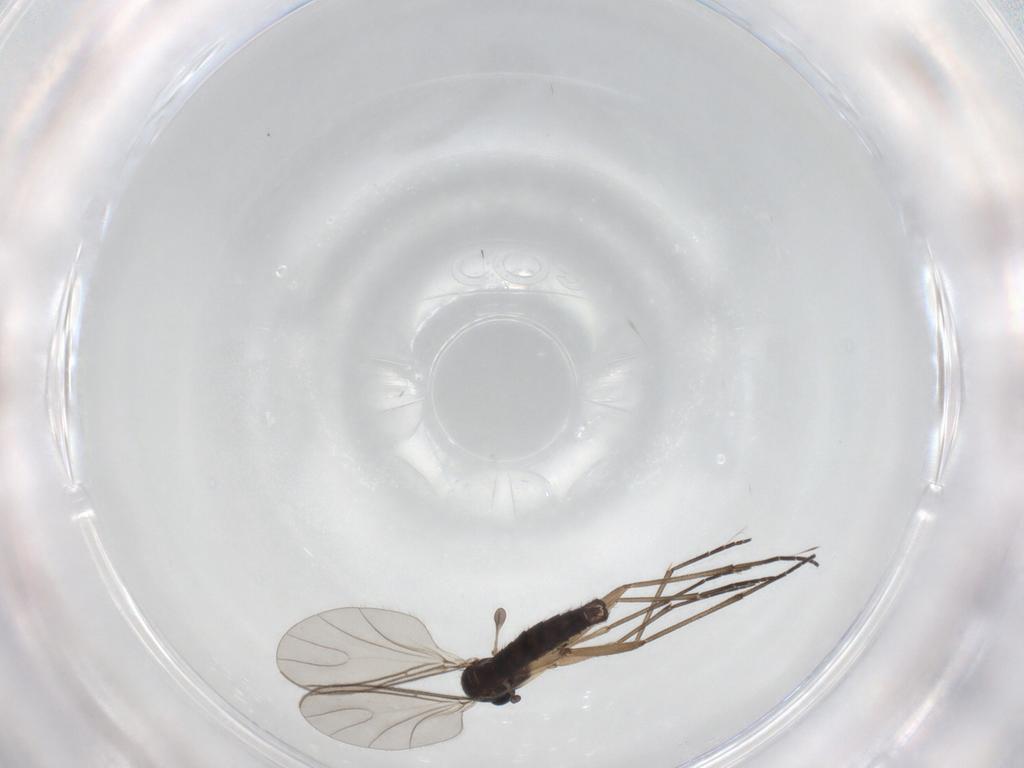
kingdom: Animalia
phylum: Arthropoda
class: Insecta
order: Diptera
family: Sciaridae
